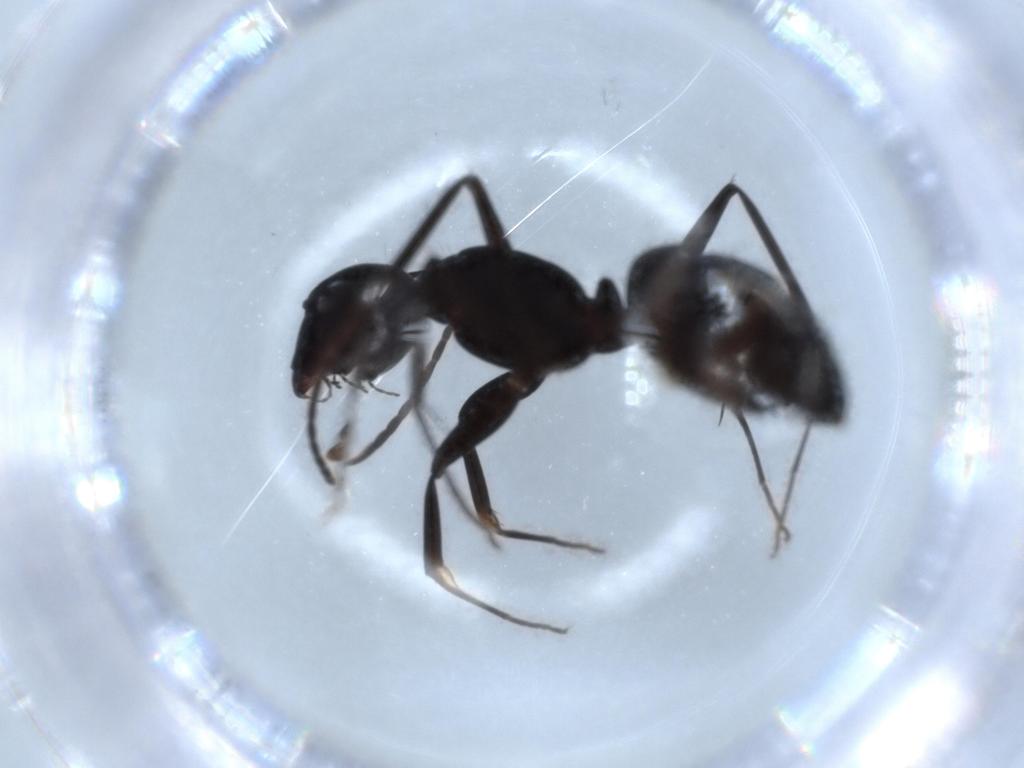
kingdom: Animalia
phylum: Arthropoda
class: Insecta
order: Hymenoptera
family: Formicidae
